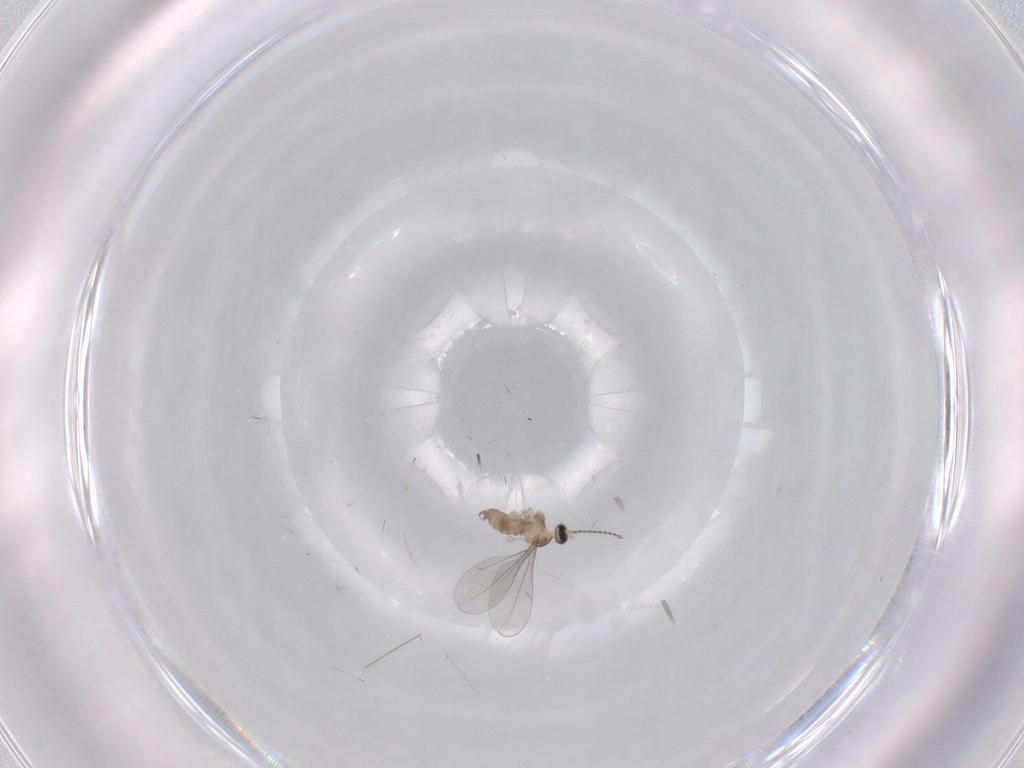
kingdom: Animalia
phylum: Arthropoda
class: Insecta
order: Diptera
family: Cecidomyiidae
